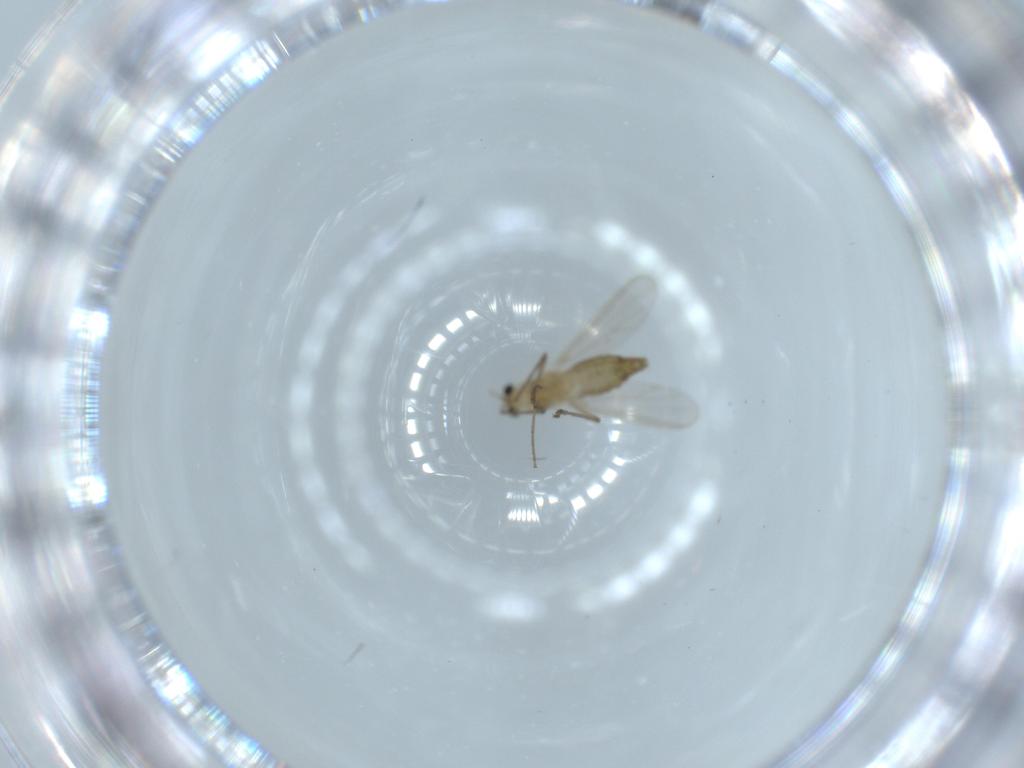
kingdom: Animalia
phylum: Arthropoda
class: Insecta
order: Diptera
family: Chironomidae
